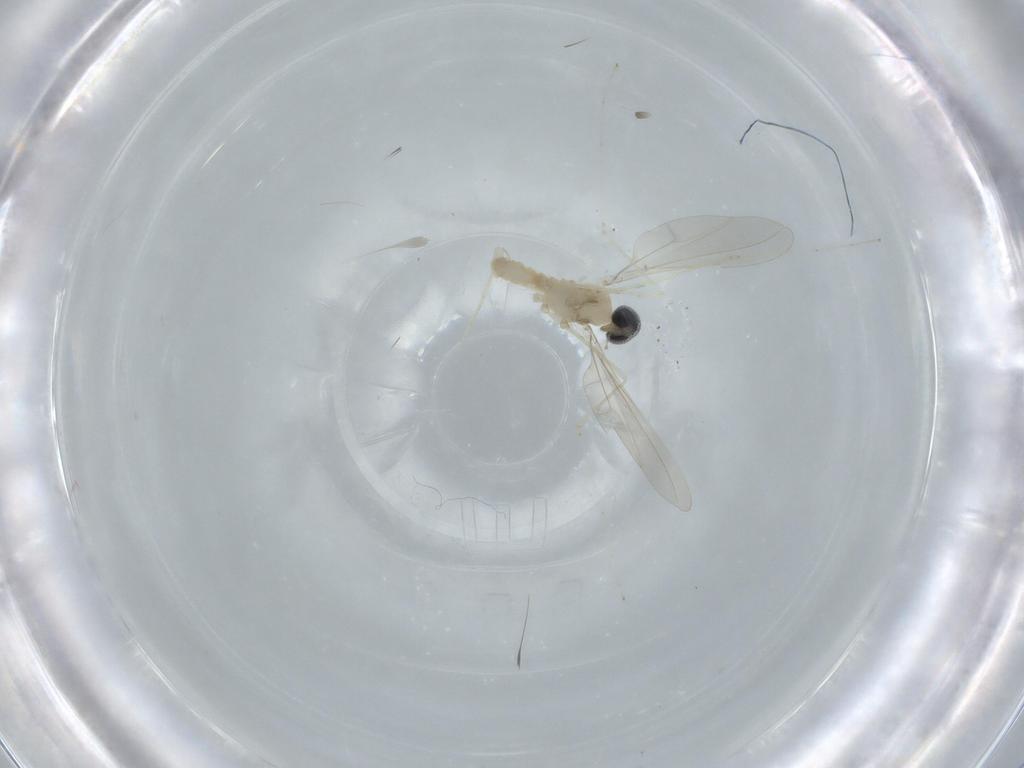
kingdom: Animalia
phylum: Arthropoda
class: Insecta
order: Diptera
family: Cecidomyiidae
